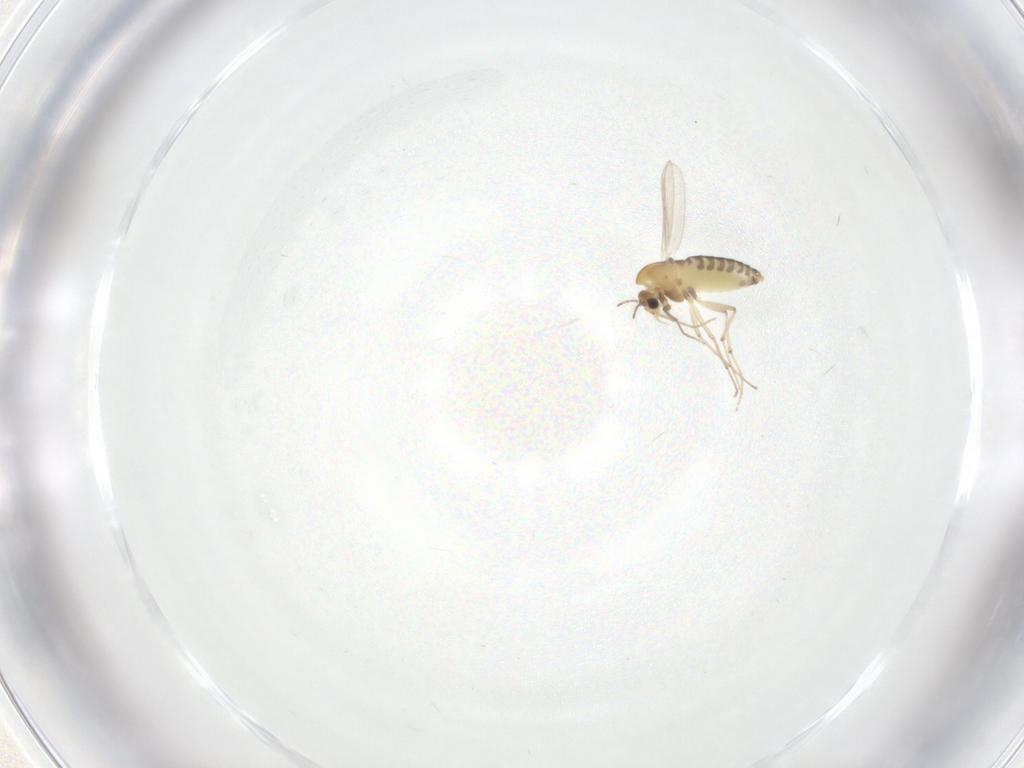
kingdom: Animalia
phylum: Arthropoda
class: Insecta
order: Diptera
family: Chironomidae
